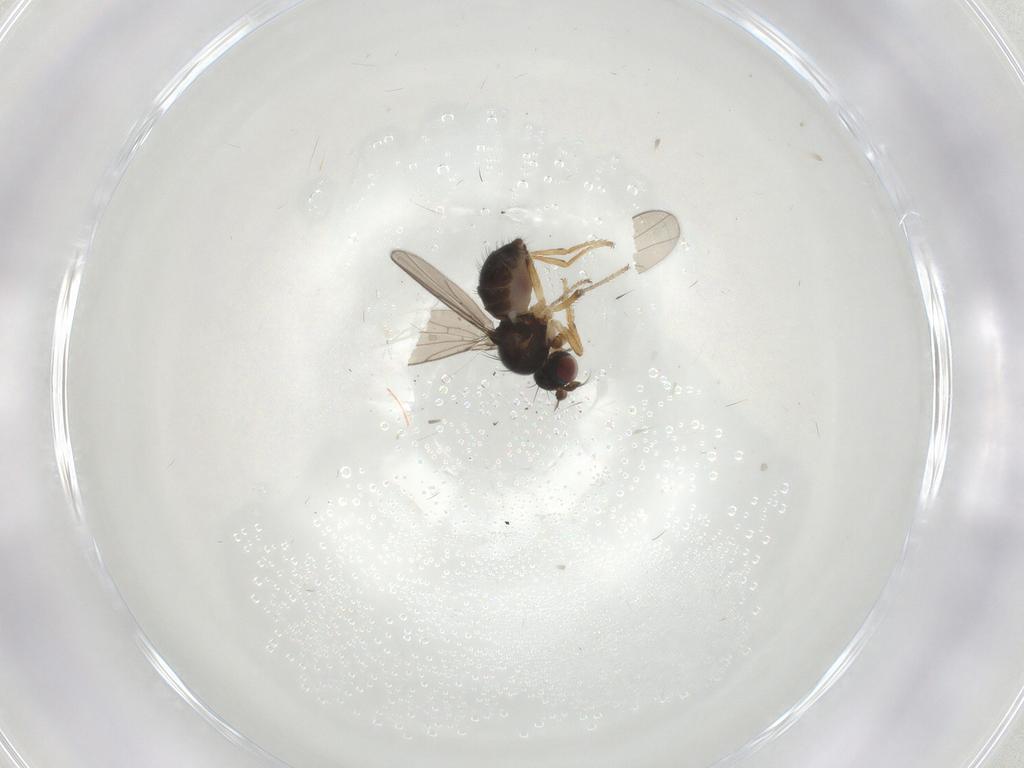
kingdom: Animalia
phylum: Arthropoda
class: Insecta
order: Diptera
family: Ephydridae
